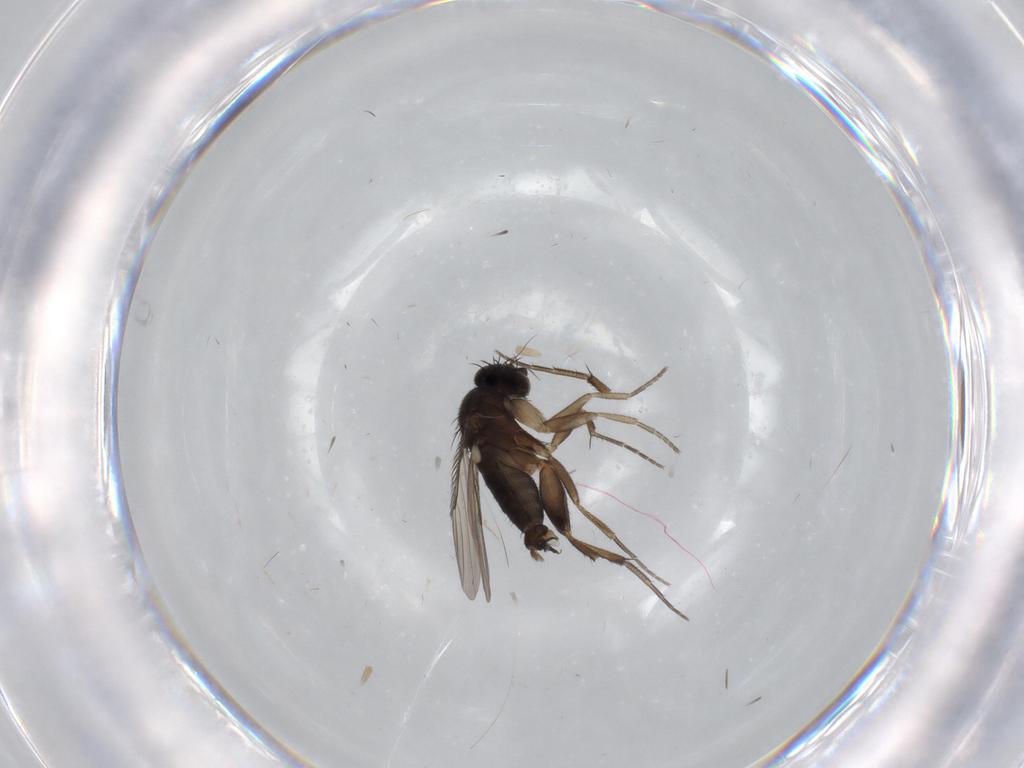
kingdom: Animalia
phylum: Arthropoda
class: Insecta
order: Diptera
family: Phoridae
